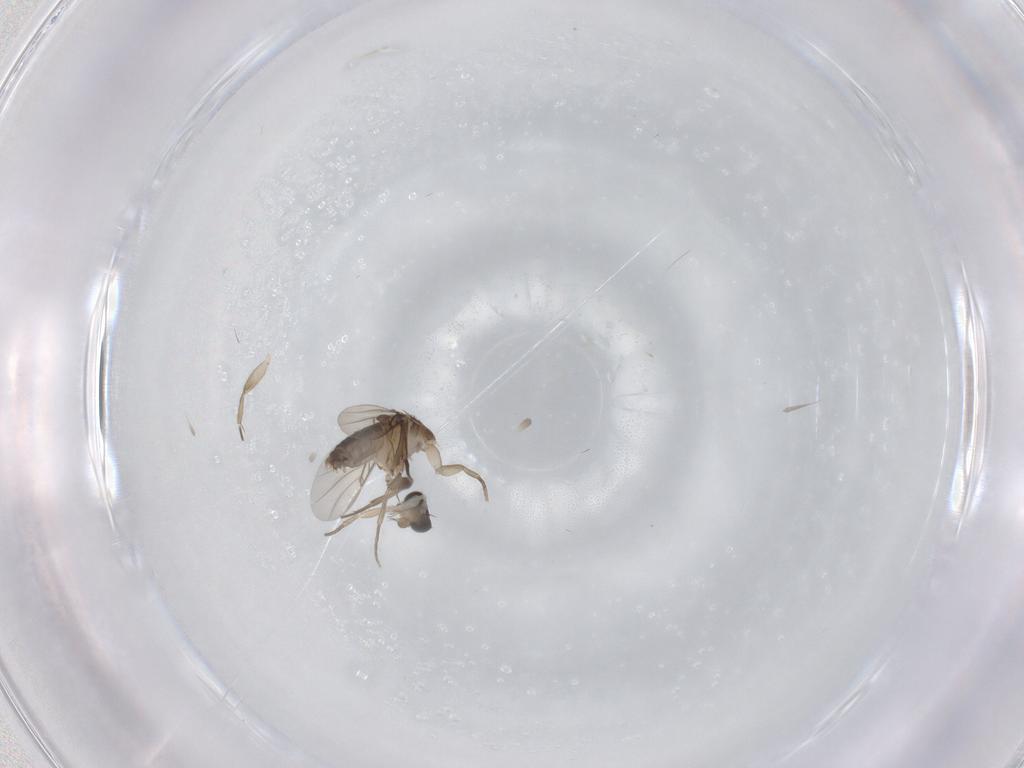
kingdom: Animalia
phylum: Arthropoda
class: Insecta
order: Diptera
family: Phoridae
